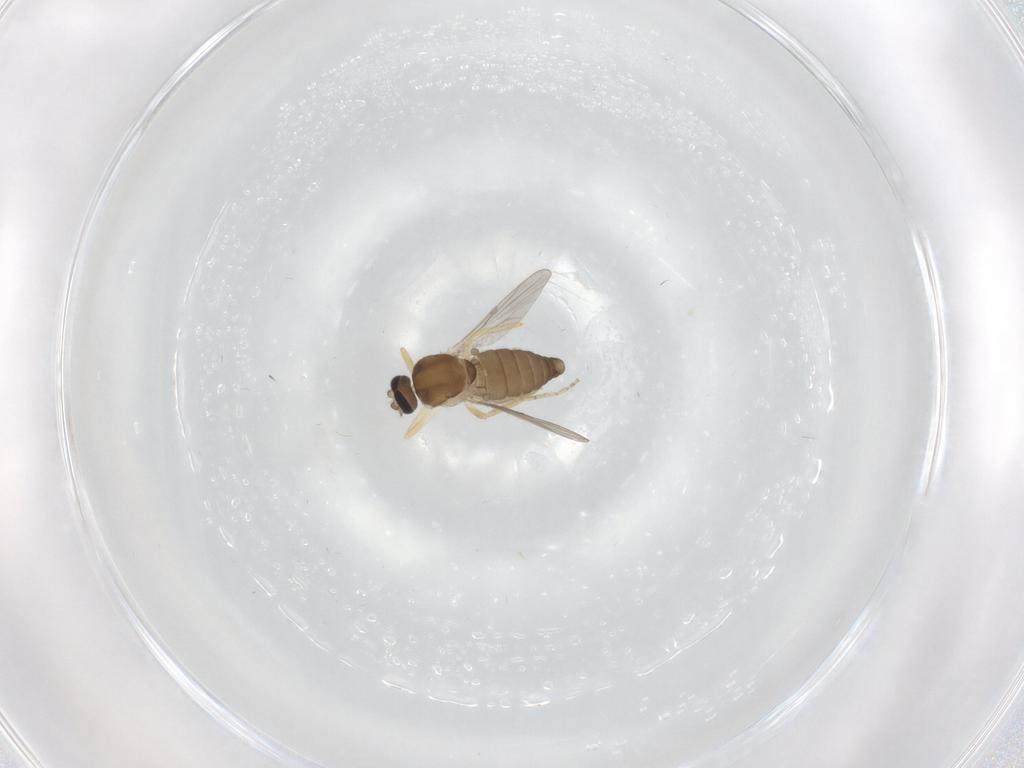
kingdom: Animalia
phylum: Arthropoda
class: Insecta
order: Diptera
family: Ceratopogonidae
